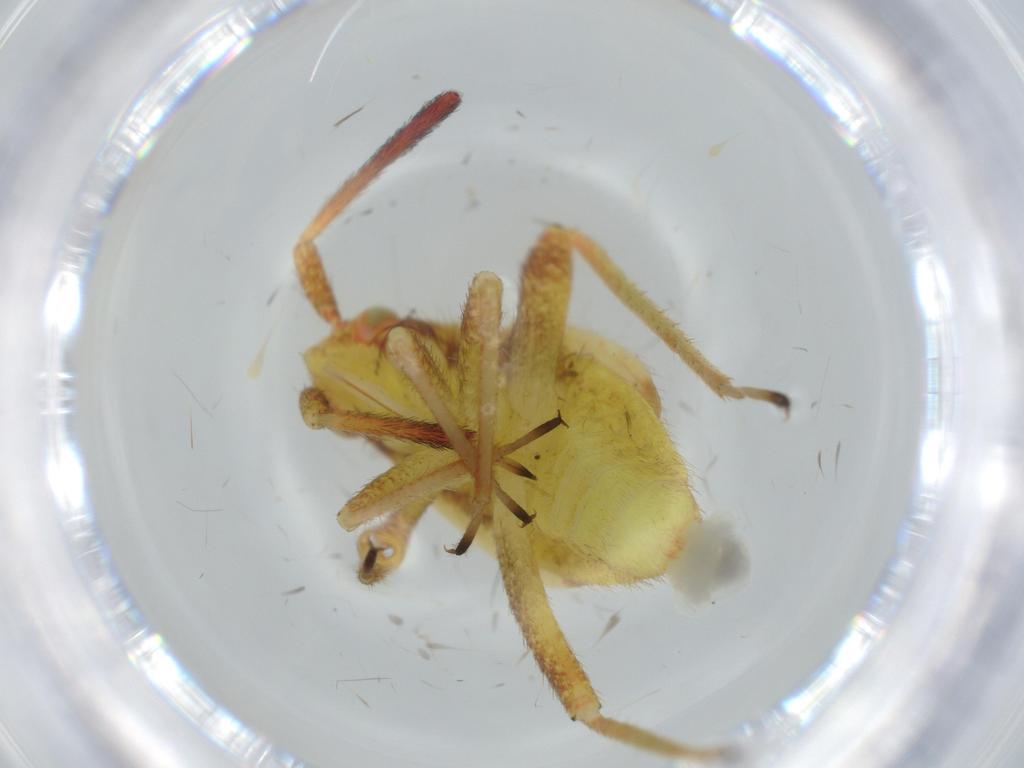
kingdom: Animalia
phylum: Arthropoda
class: Insecta
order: Hemiptera
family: Miridae
